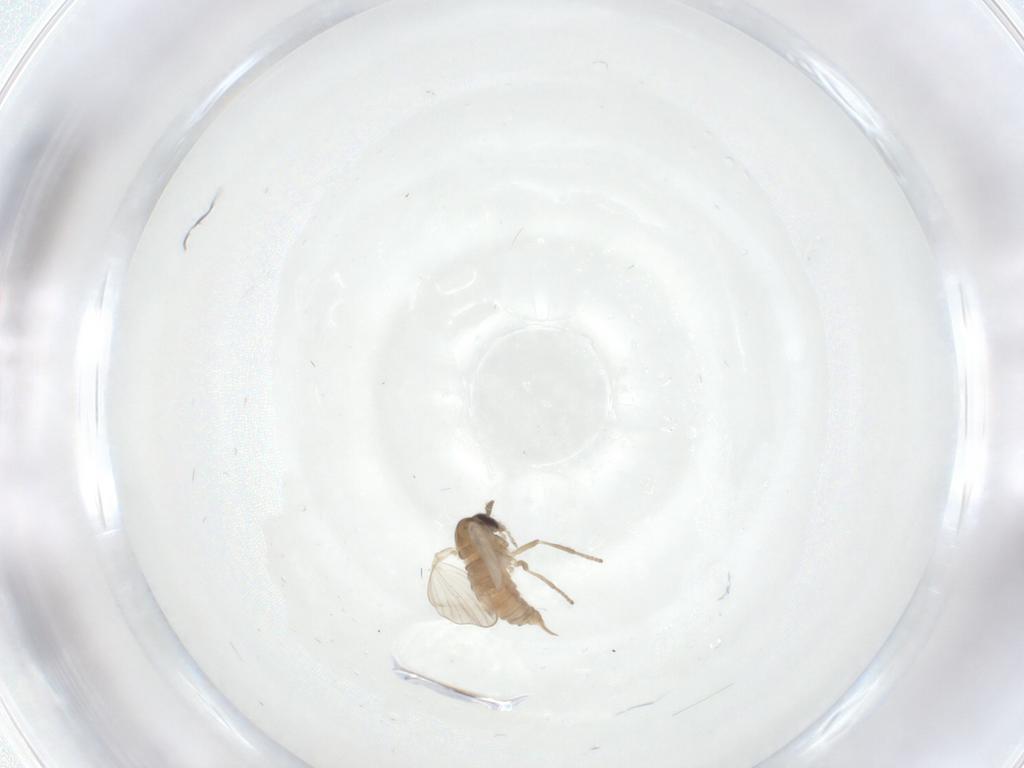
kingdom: Animalia
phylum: Arthropoda
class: Insecta
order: Diptera
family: Psychodidae
